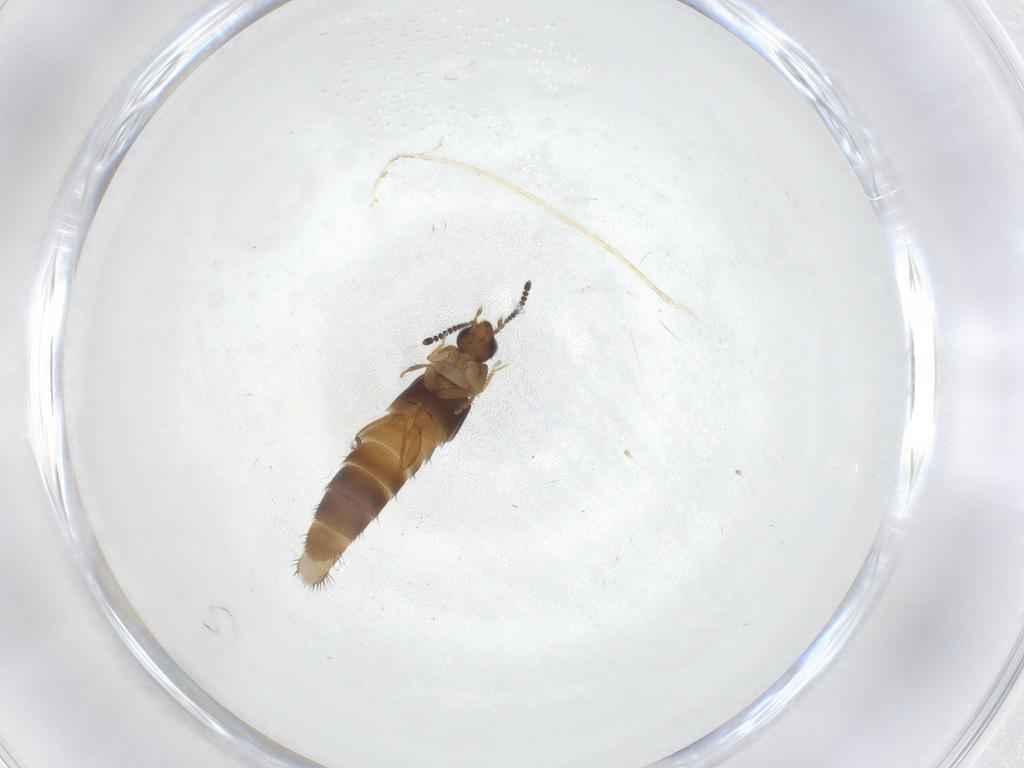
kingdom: Animalia
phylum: Arthropoda
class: Insecta
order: Coleoptera
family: Staphylinidae
